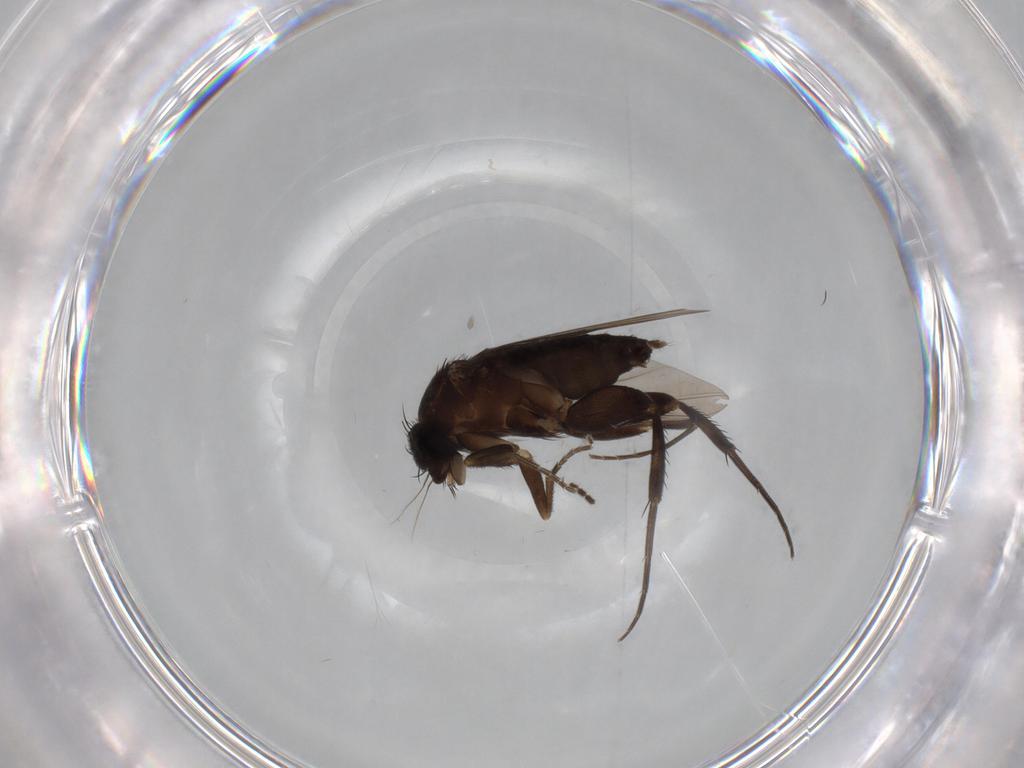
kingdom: Animalia
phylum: Arthropoda
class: Insecta
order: Diptera
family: Phoridae
